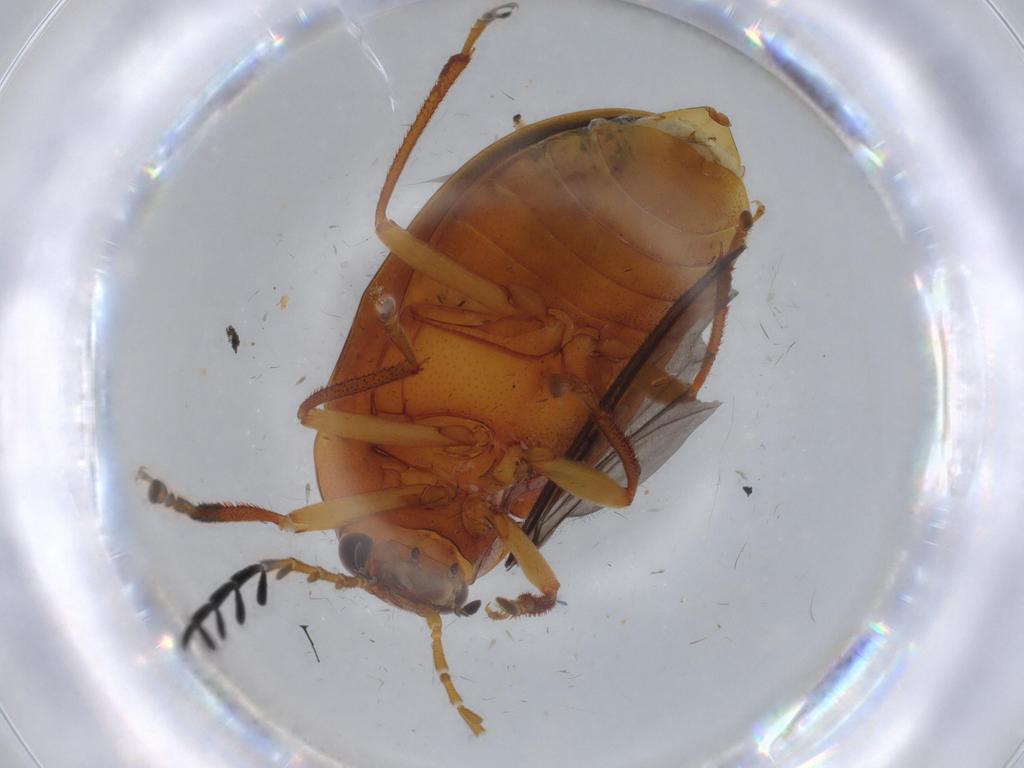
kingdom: Animalia
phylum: Arthropoda
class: Insecta
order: Coleoptera
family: Ptilodactylidae
